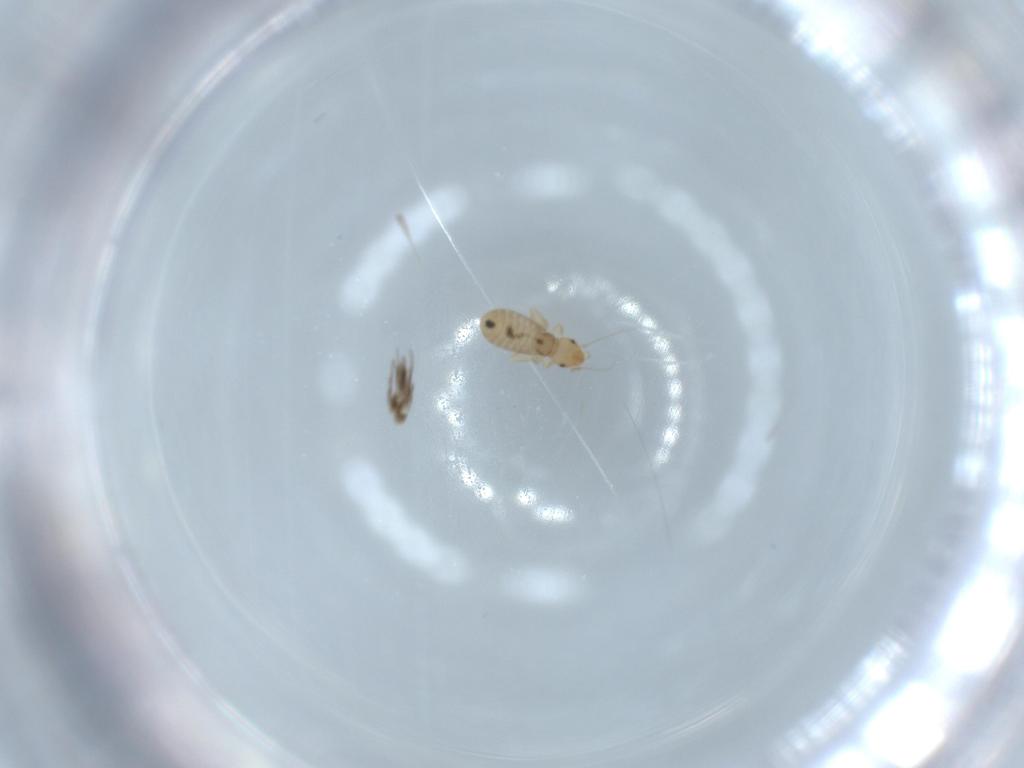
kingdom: Animalia
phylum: Arthropoda
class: Insecta
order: Psocodea
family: Liposcelididae
